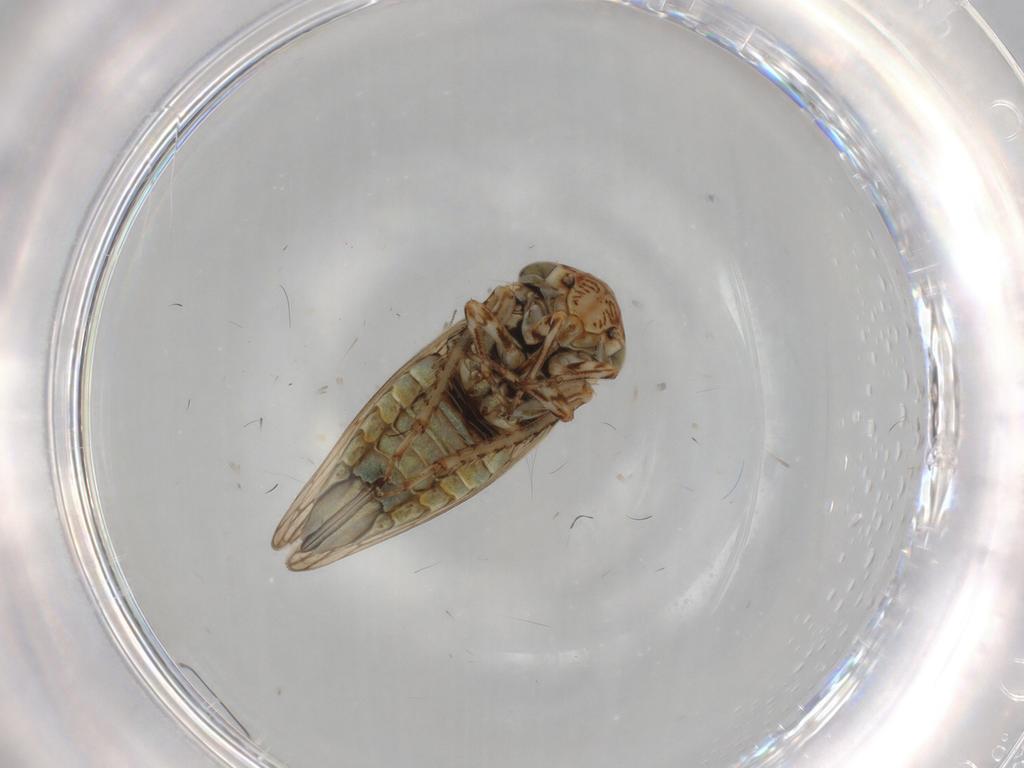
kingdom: Animalia
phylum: Arthropoda
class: Insecta
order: Hemiptera
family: Cicadellidae
